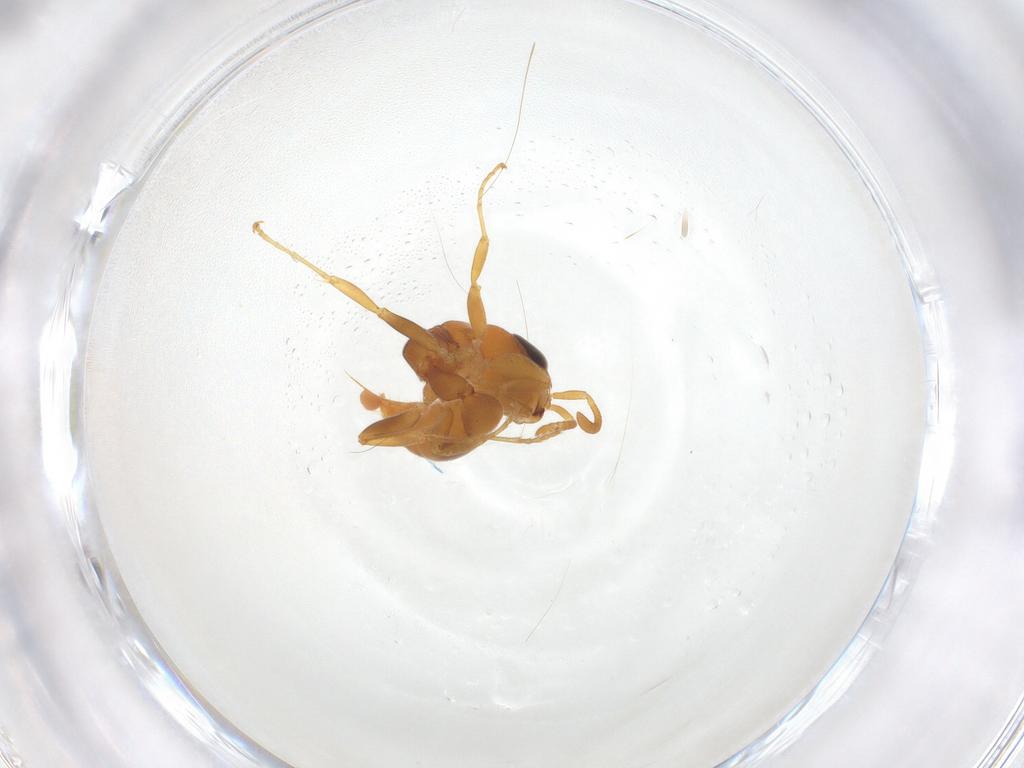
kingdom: Animalia
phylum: Arthropoda
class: Insecta
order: Hymenoptera
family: Formicidae
